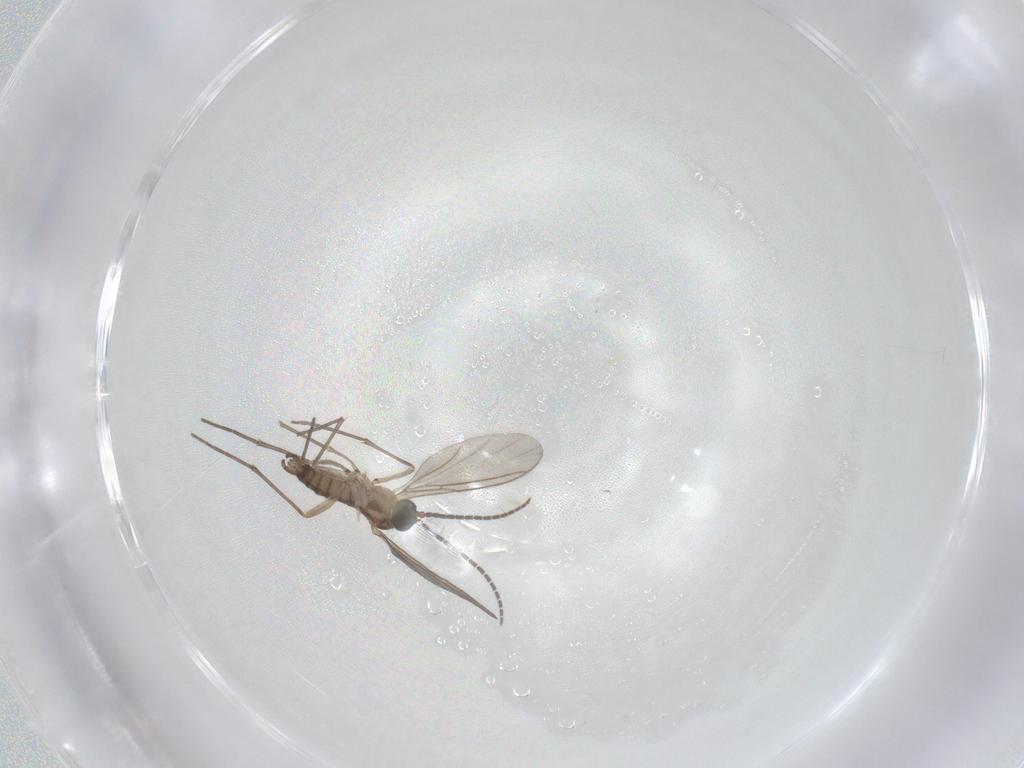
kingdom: Animalia
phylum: Arthropoda
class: Insecta
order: Diptera
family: Sciaridae
